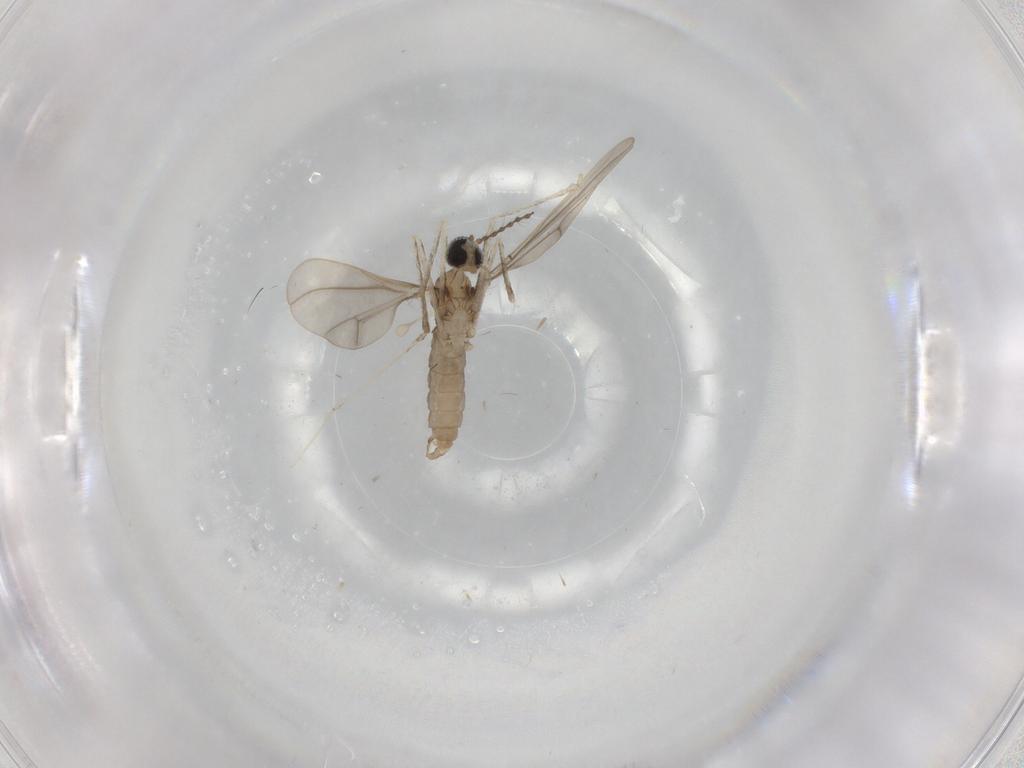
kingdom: Animalia
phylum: Arthropoda
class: Insecta
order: Diptera
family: Cecidomyiidae
